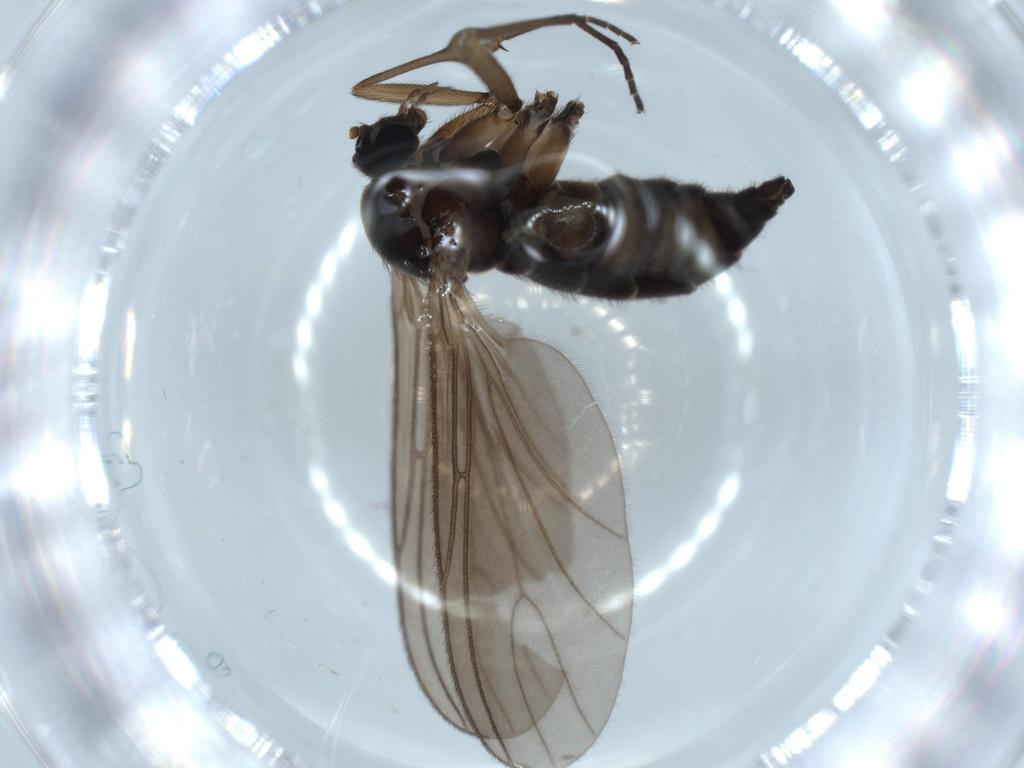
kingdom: Animalia
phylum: Arthropoda
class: Insecta
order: Diptera
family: Sciaridae
